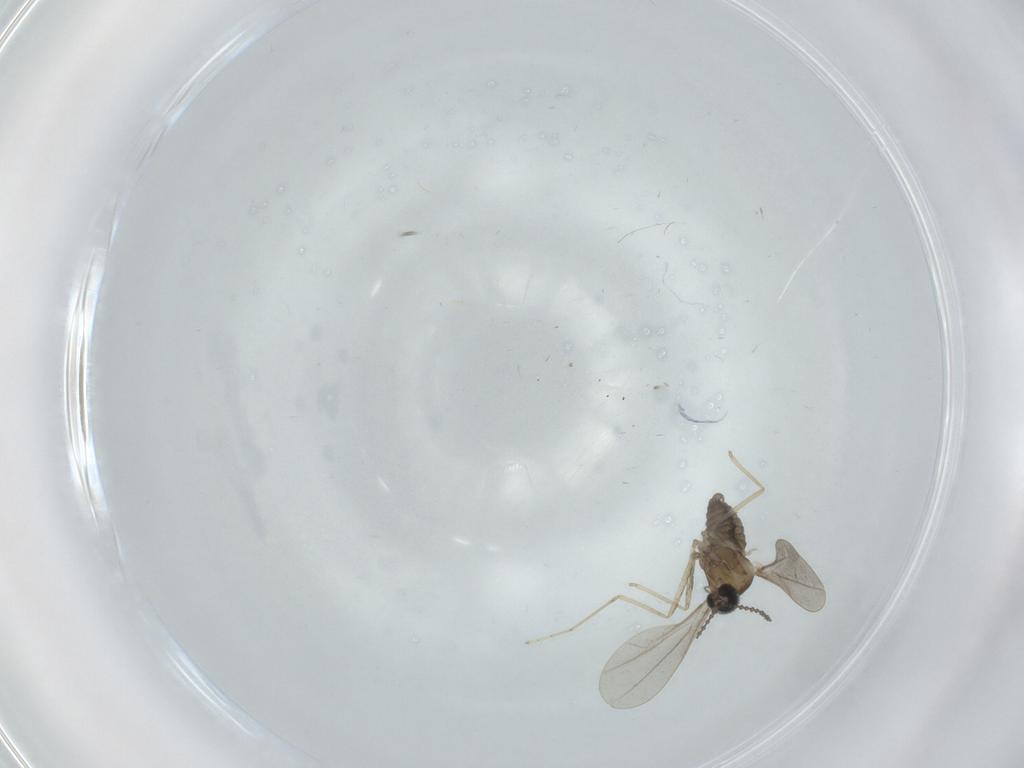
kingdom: Animalia
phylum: Arthropoda
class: Insecta
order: Diptera
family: Cecidomyiidae
